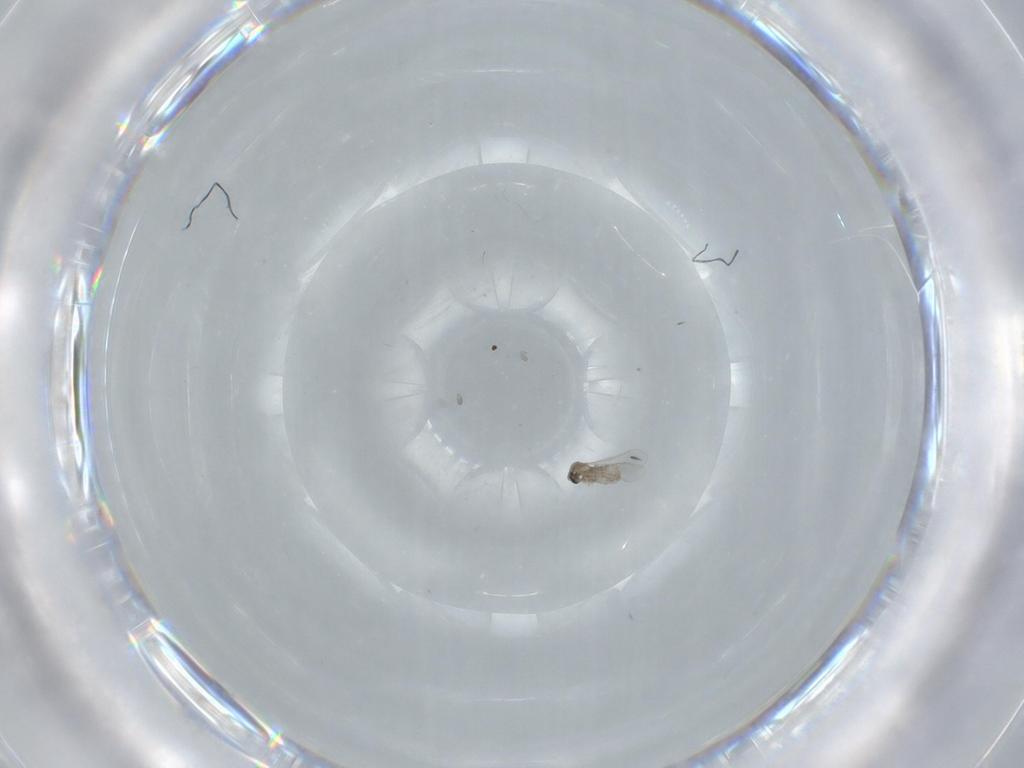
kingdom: Animalia
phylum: Arthropoda
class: Insecta
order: Diptera
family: Cecidomyiidae
